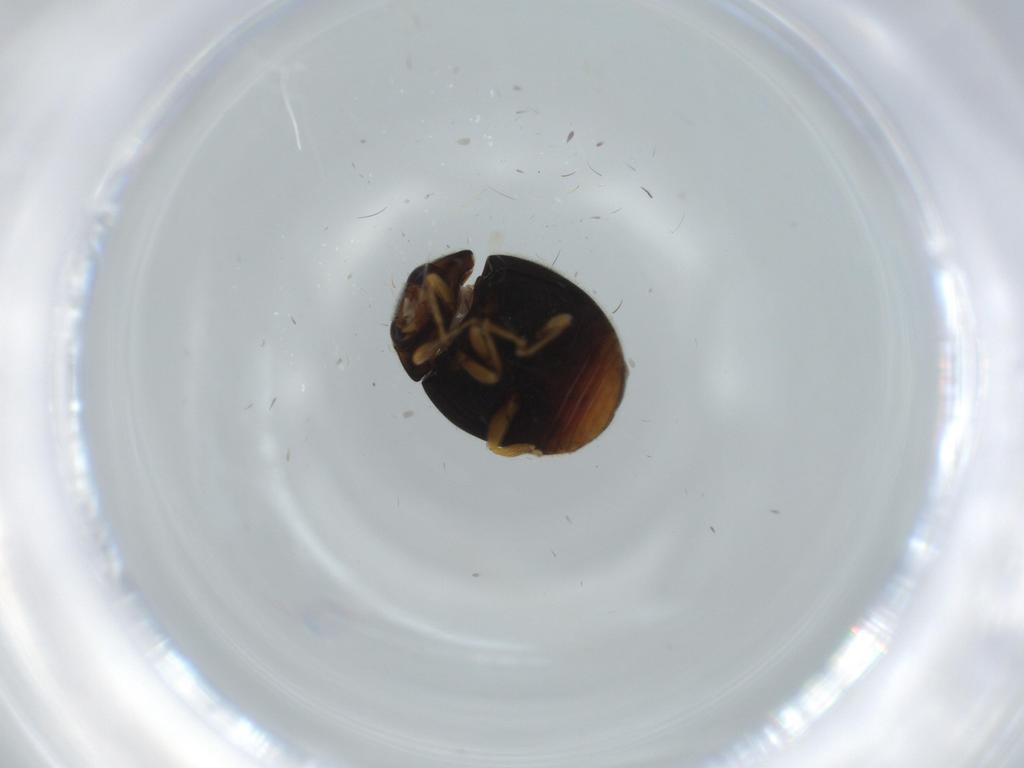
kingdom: Animalia
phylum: Arthropoda
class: Insecta
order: Coleoptera
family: Coccinellidae
